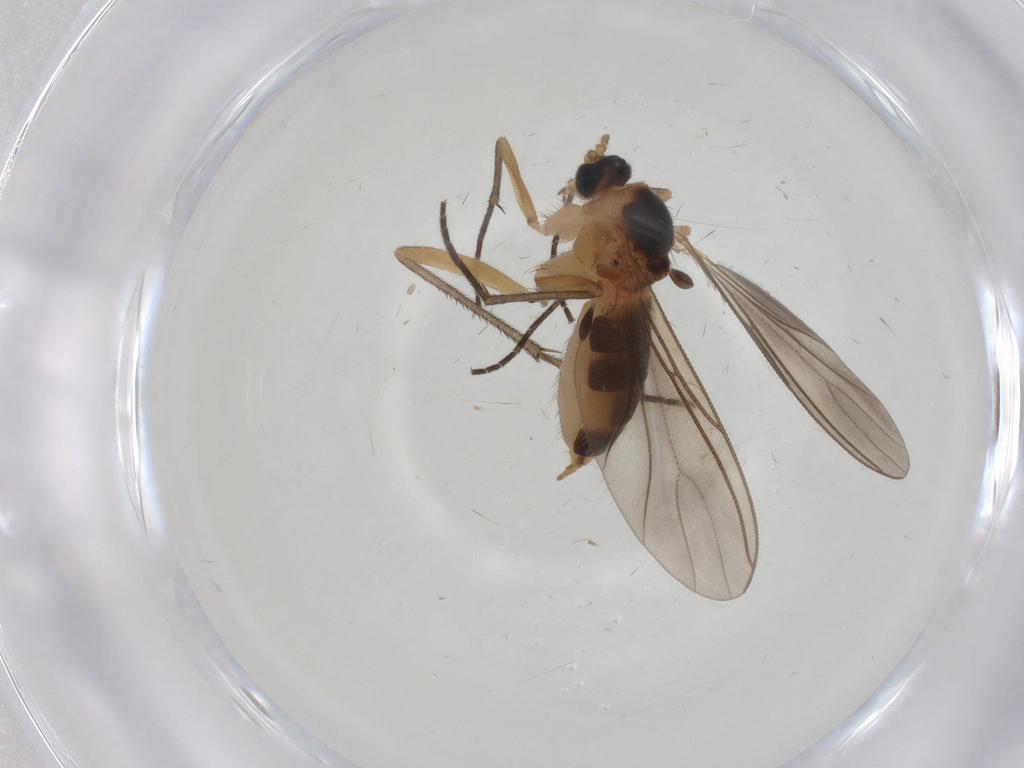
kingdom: Animalia
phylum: Arthropoda
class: Insecta
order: Diptera
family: Sciaridae
